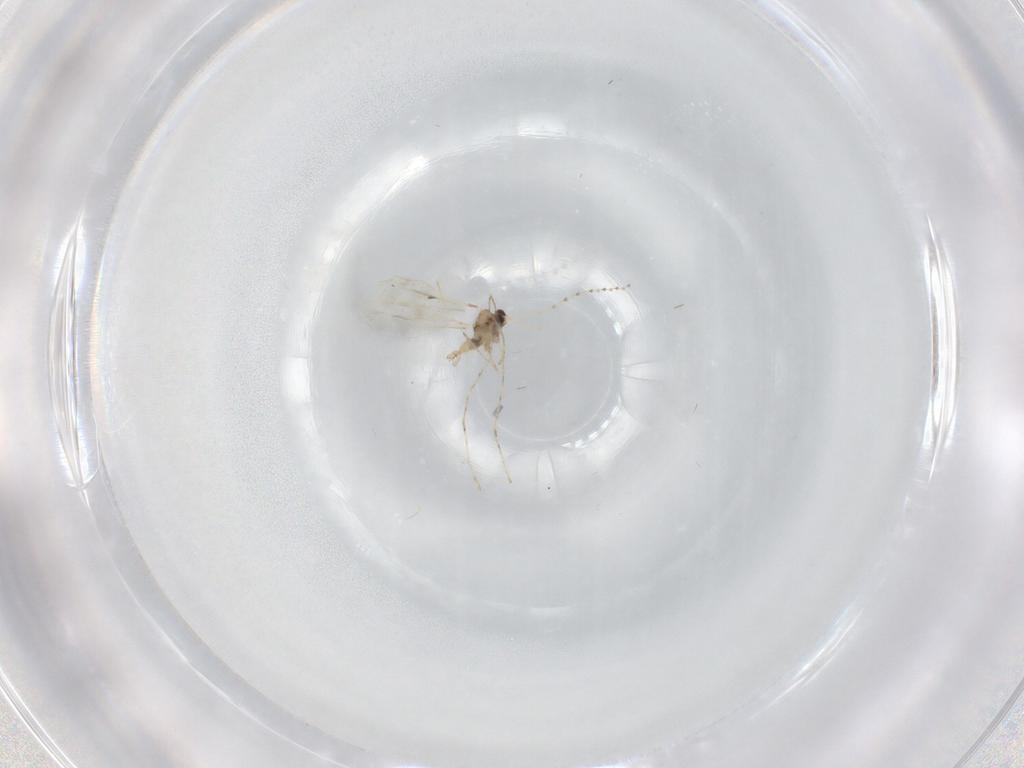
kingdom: Animalia
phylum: Arthropoda
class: Insecta
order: Diptera
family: Cecidomyiidae
